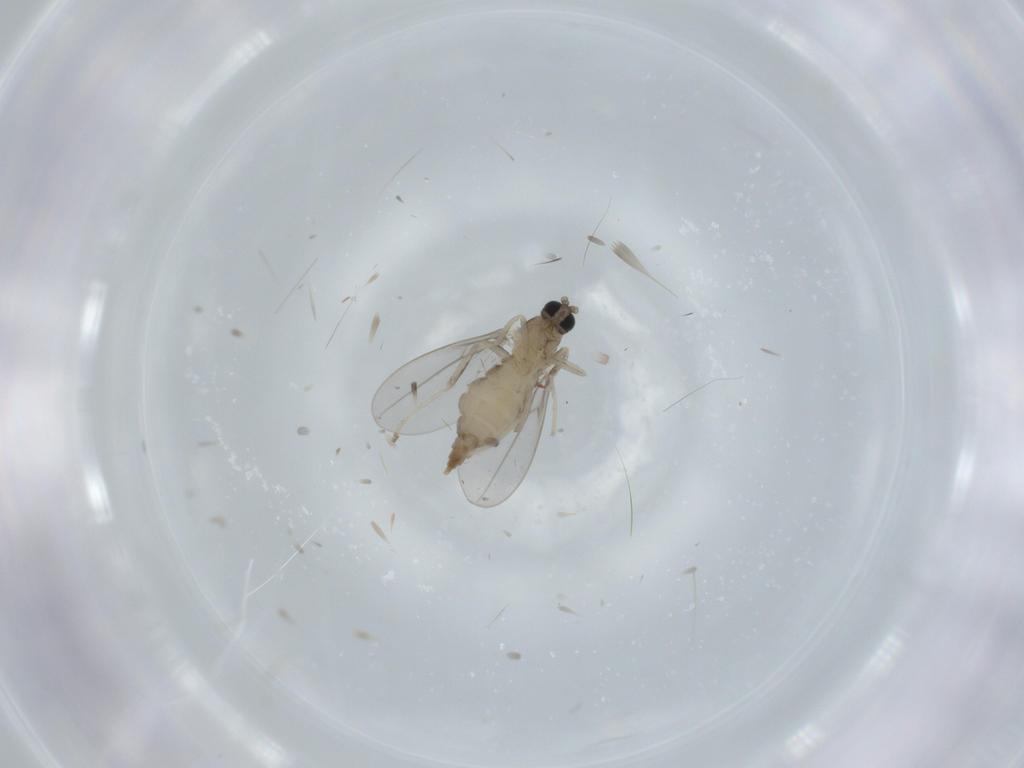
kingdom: Animalia
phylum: Arthropoda
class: Insecta
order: Diptera
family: Cecidomyiidae
